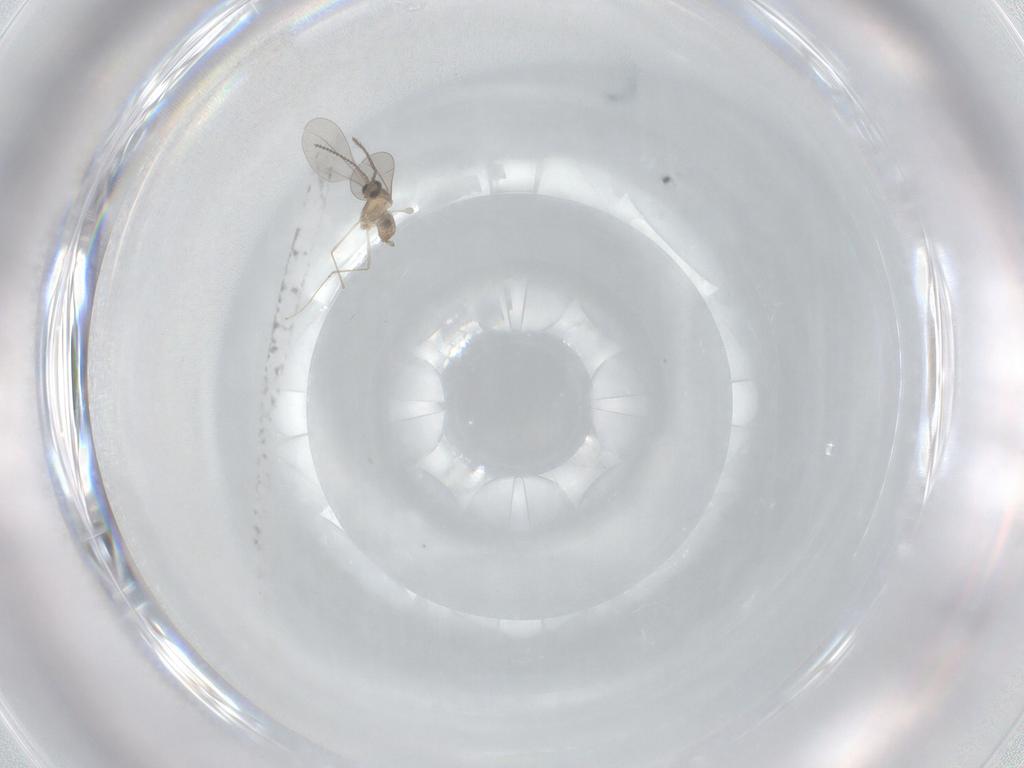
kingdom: Animalia
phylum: Arthropoda
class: Insecta
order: Diptera
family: Cecidomyiidae
